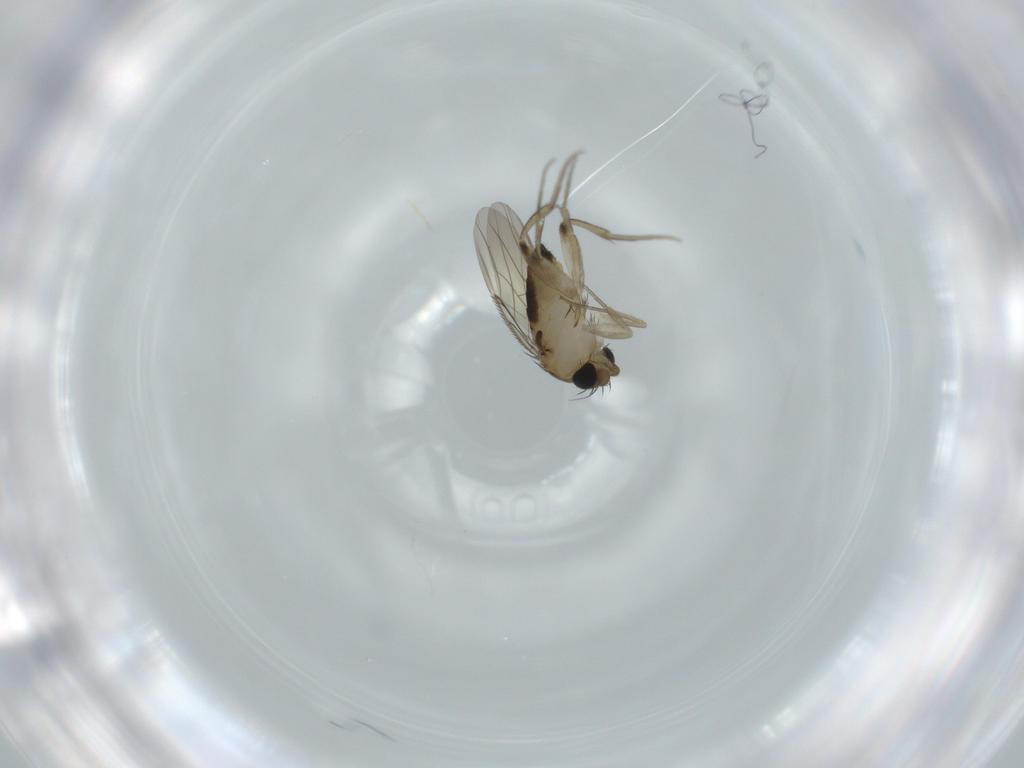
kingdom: Animalia
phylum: Arthropoda
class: Insecta
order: Diptera
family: Phoridae
